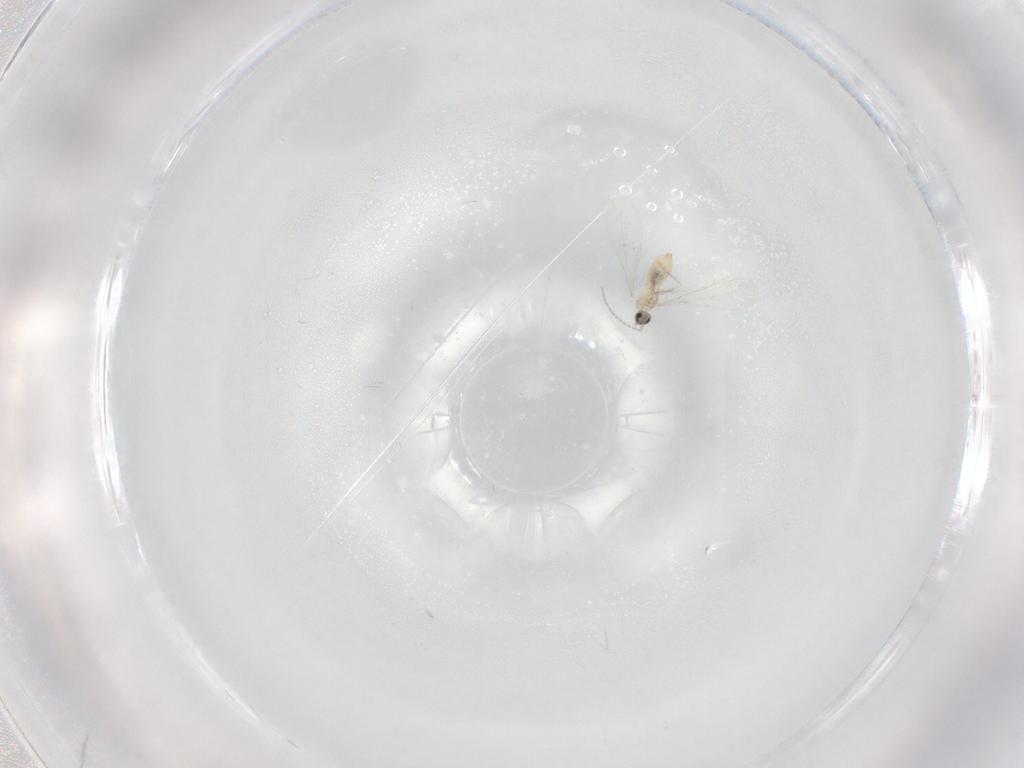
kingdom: Animalia
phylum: Arthropoda
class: Insecta
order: Diptera
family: Cecidomyiidae
